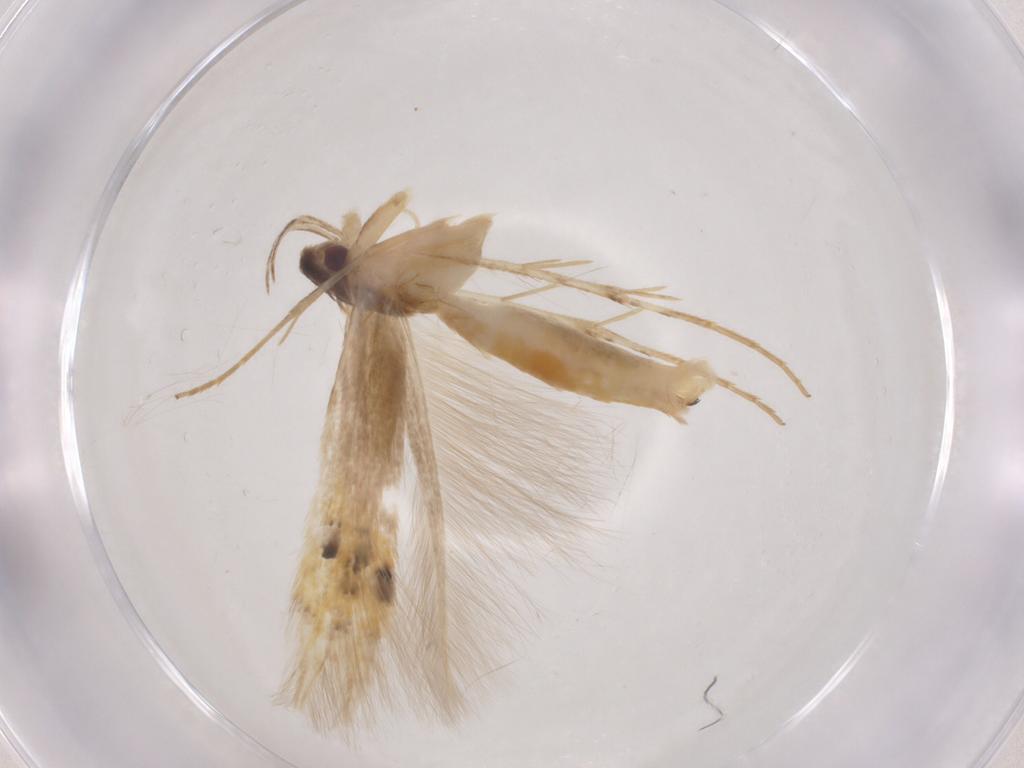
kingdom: Animalia
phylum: Arthropoda
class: Insecta
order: Lepidoptera
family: Cosmopterigidae
